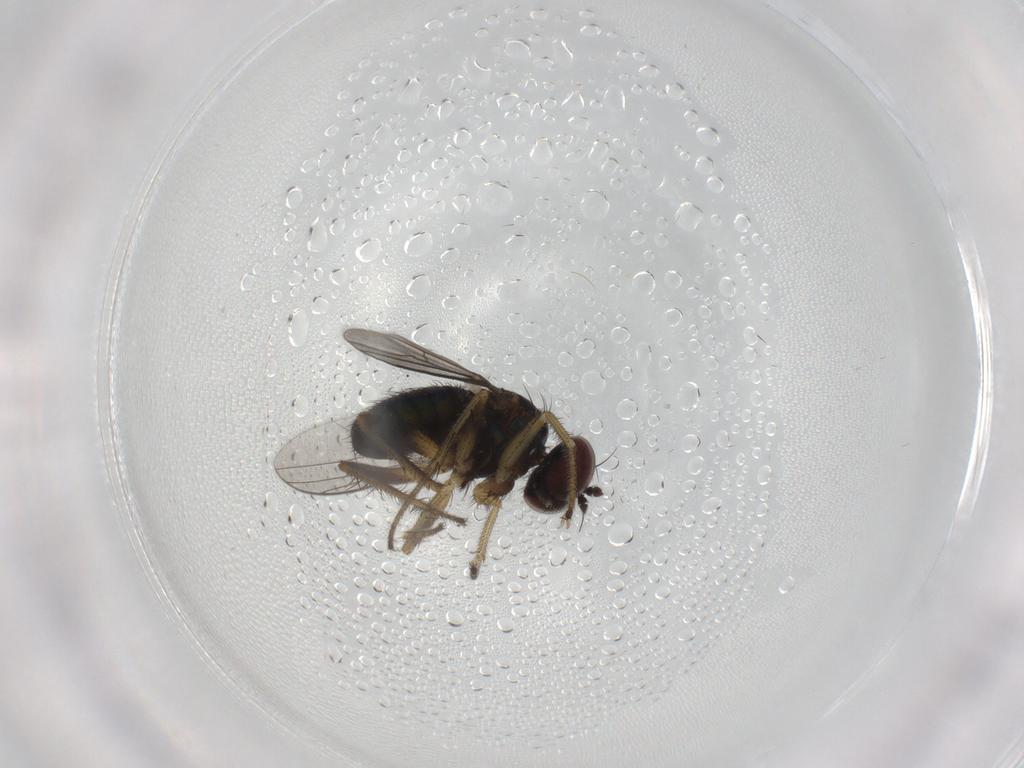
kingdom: Animalia
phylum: Arthropoda
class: Insecta
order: Diptera
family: Dolichopodidae
